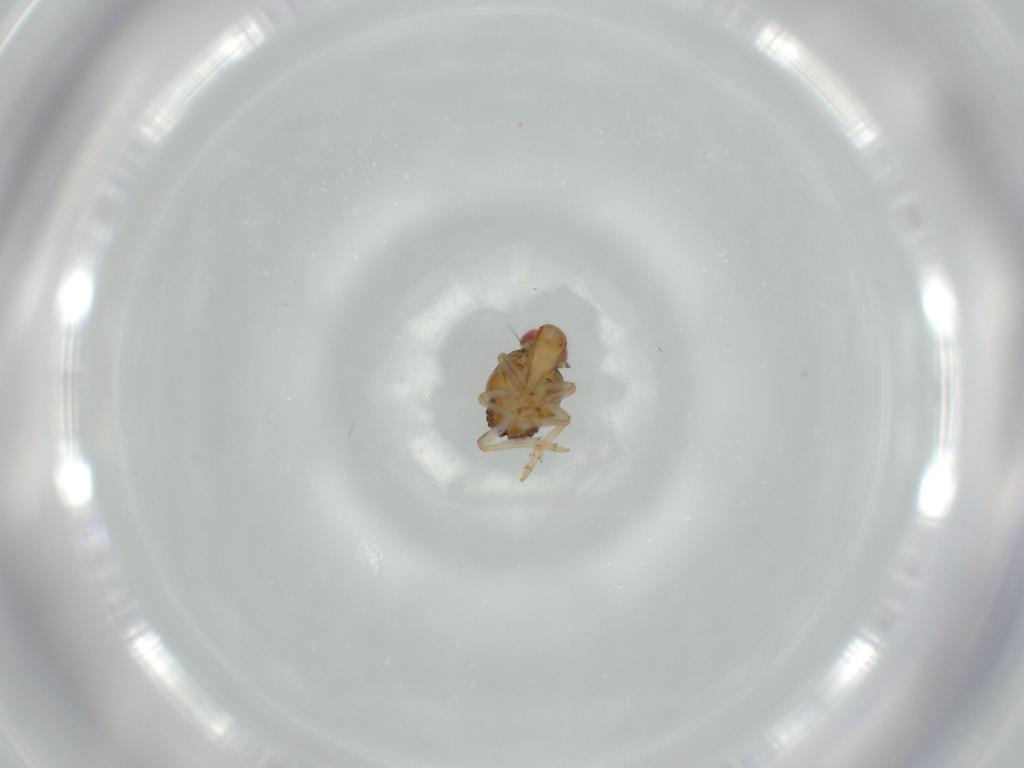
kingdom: Animalia
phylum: Arthropoda
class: Insecta
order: Hemiptera
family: Issidae
